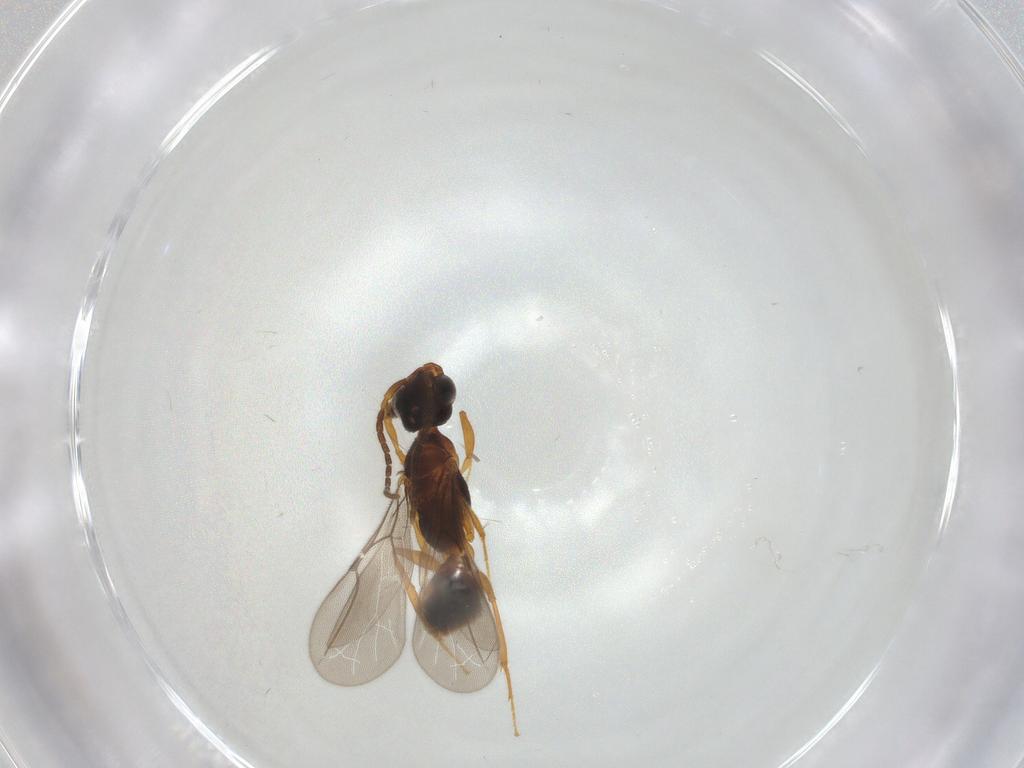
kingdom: Animalia
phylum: Arthropoda
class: Insecta
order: Hymenoptera
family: Bethylidae
